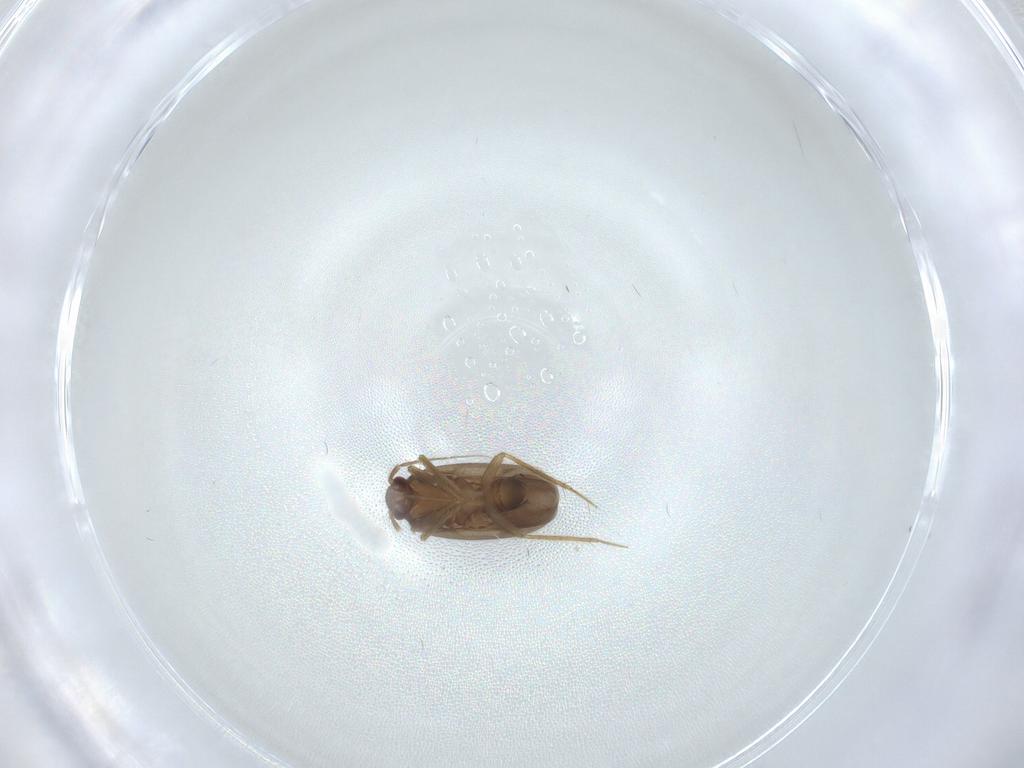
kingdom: Animalia
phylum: Arthropoda
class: Insecta
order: Hemiptera
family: Ceratocombidae
